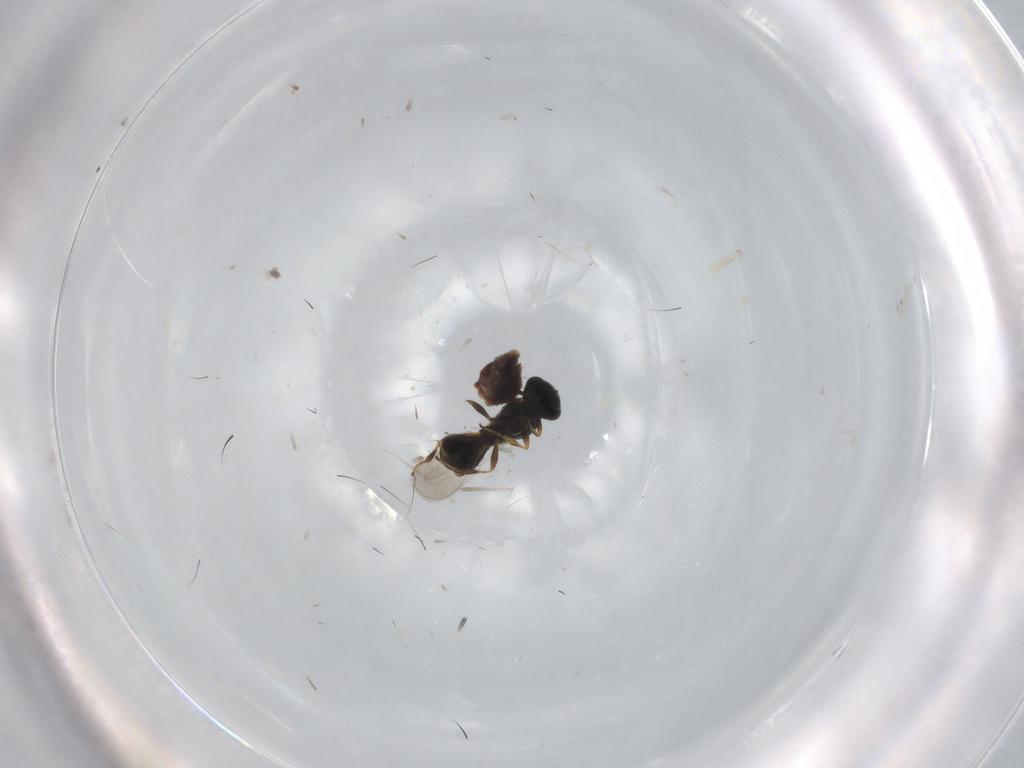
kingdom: Animalia
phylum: Arthropoda
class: Insecta
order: Hymenoptera
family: Platygastridae
